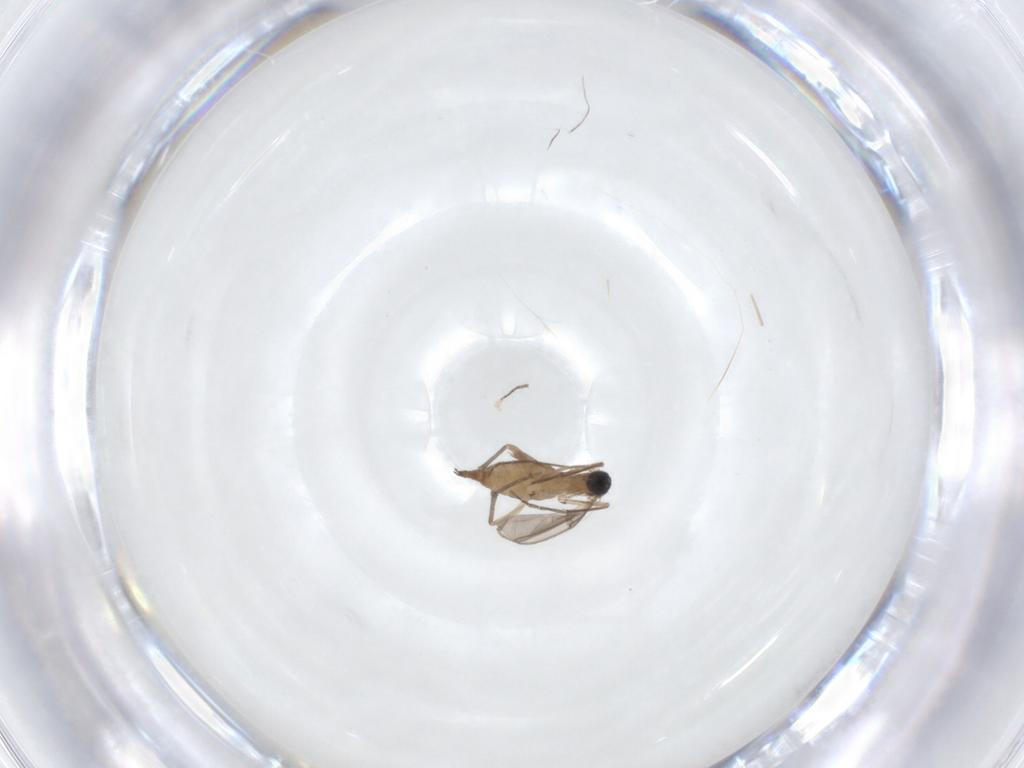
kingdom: Animalia
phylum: Arthropoda
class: Insecta
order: Diptera
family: Sciaridae
